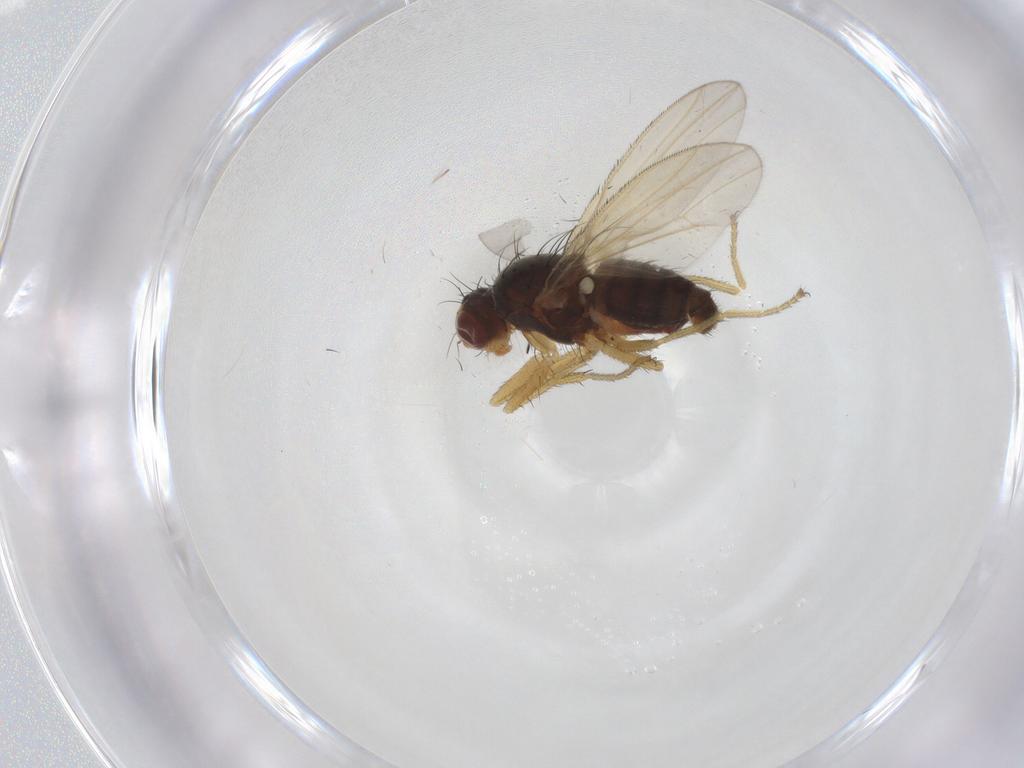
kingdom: Animalia
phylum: Arthropoda
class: Insecta
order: Diptera
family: Heleomyzidae
